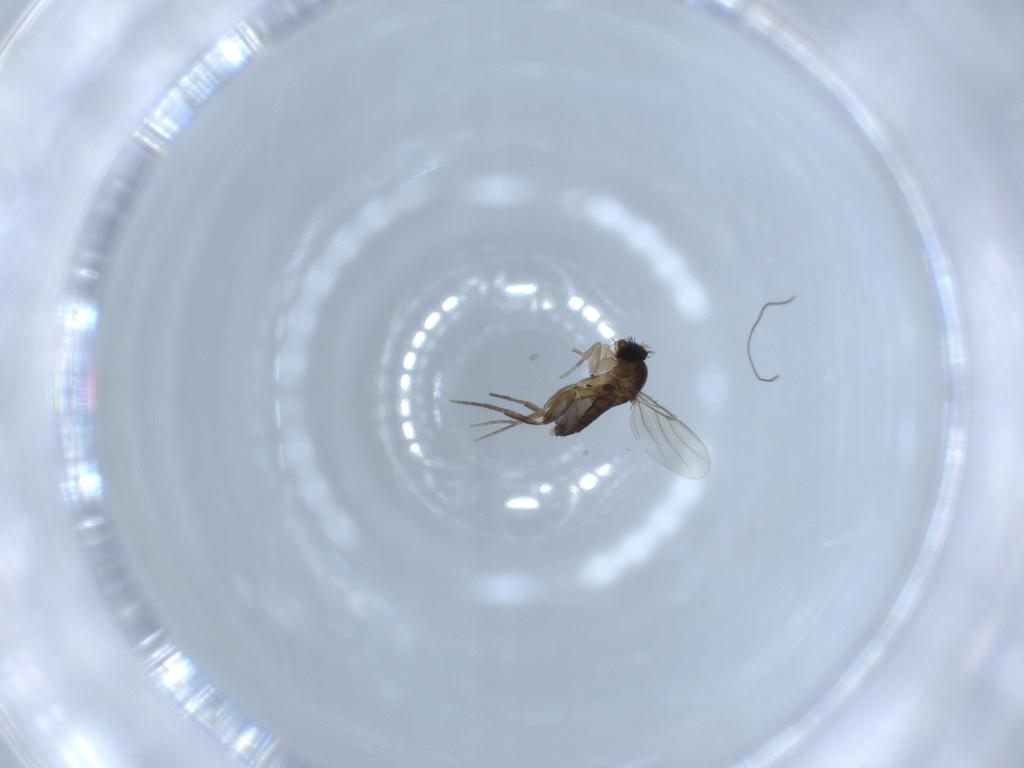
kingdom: Animalia
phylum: Arthropoda
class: Insecta
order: Diptera
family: Phoridae
